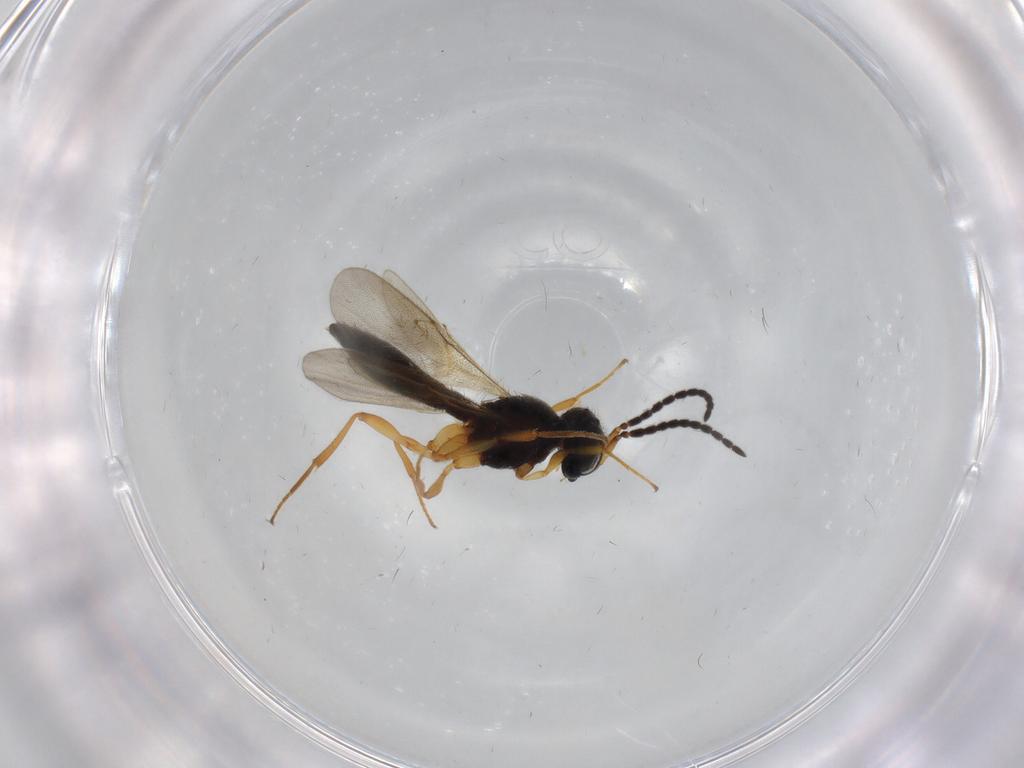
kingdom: Animalia
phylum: Arthropoda
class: Insecta
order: Hymenoptera
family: Scelionidae
